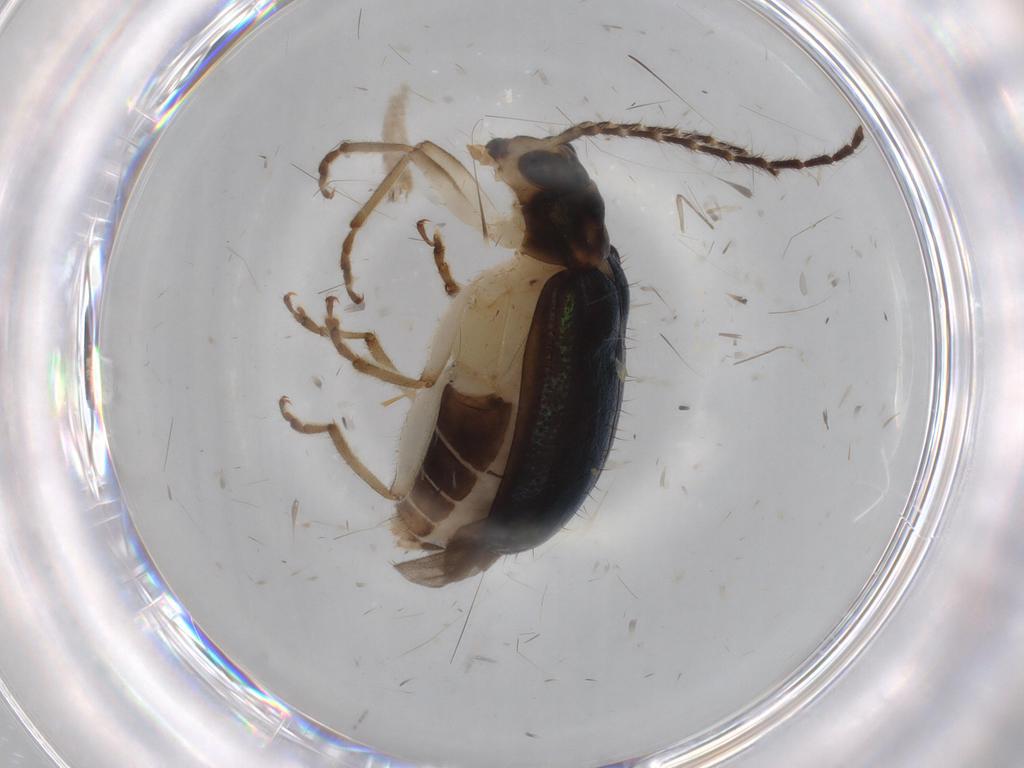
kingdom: Animalia
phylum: Arthropoda
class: Insecta
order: Coleoptera
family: Chrysomelidae
